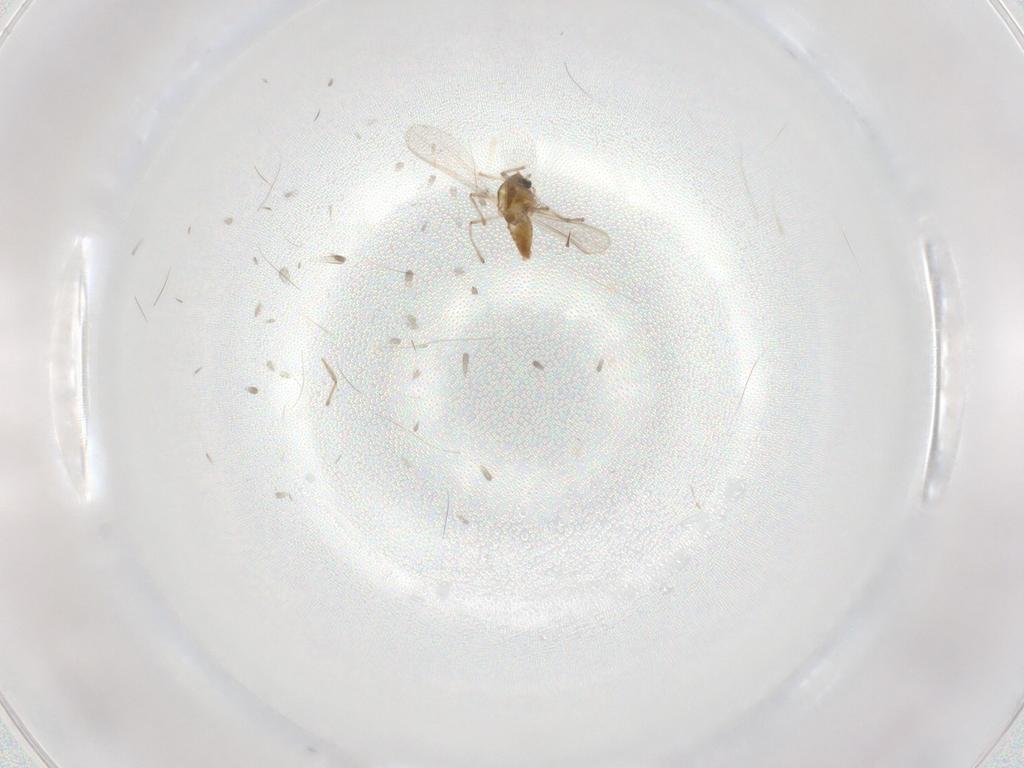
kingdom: Animalia
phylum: Arthropoda
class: Insecta
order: Diptera
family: Chironomidae
